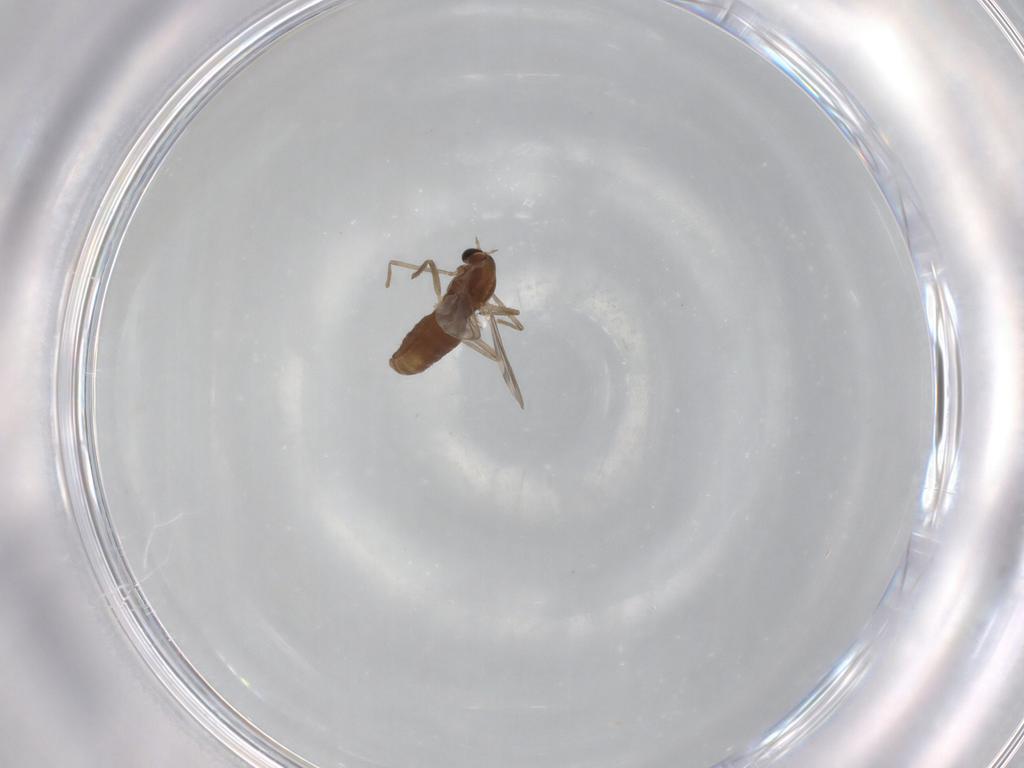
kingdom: Animalia
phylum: Arthropoda
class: Insecta
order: Diptera
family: Chironomidae
